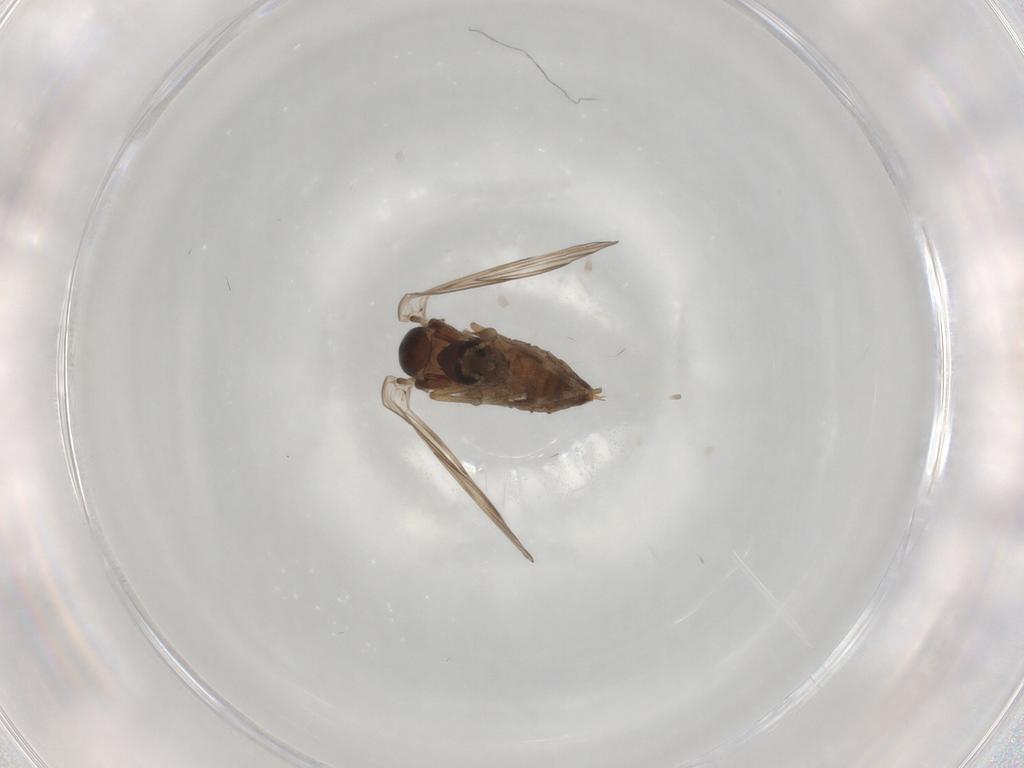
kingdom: Animalia
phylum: Arthropoda
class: Insecta
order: Diptera
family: Psychodidae
